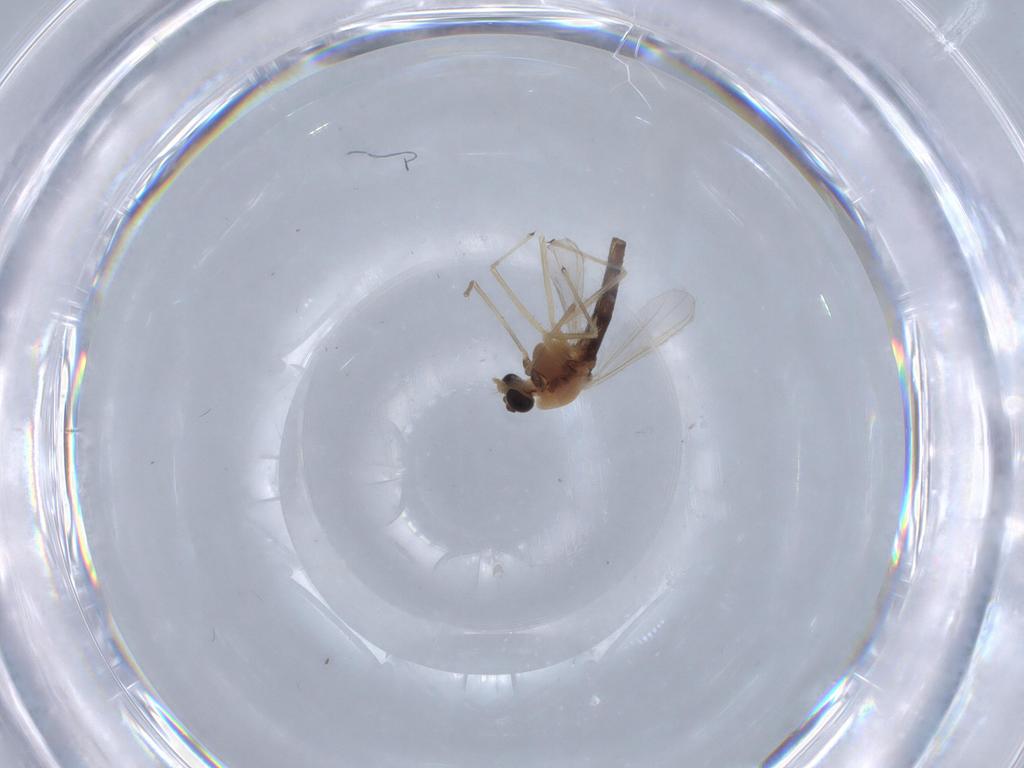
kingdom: Animalia
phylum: Arthropoda
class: Insecta
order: Diptera
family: Chironomidae
